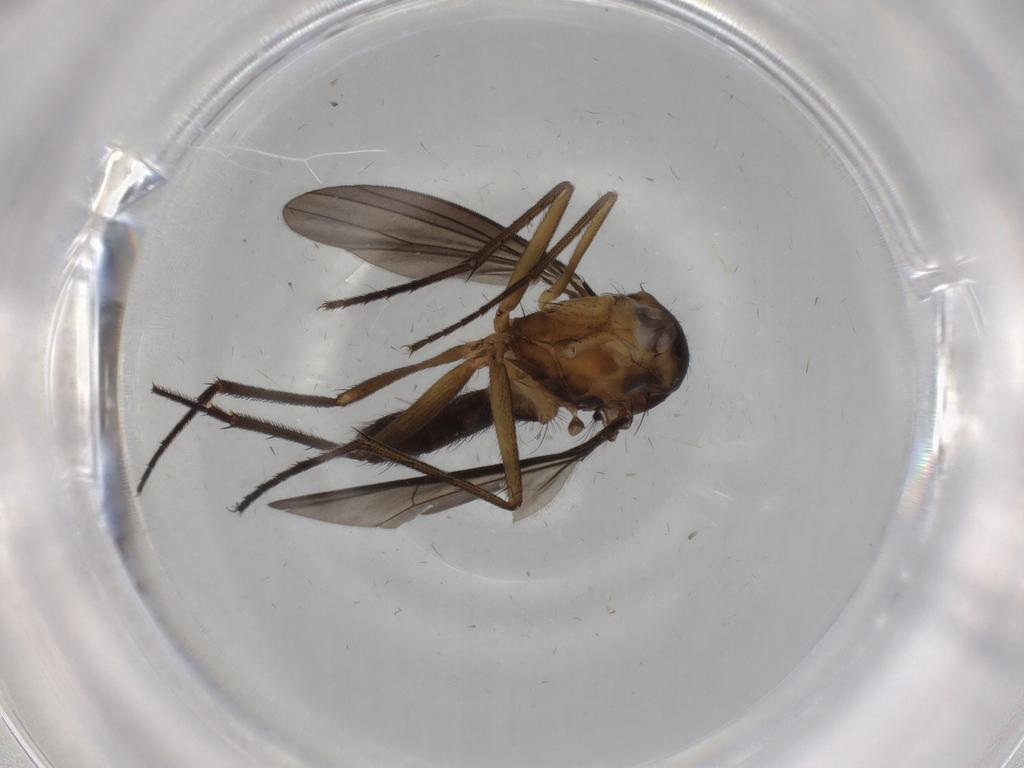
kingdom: Animalia
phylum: Arthropoda
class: Insecta
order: Diptera
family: Dolichopodidae
